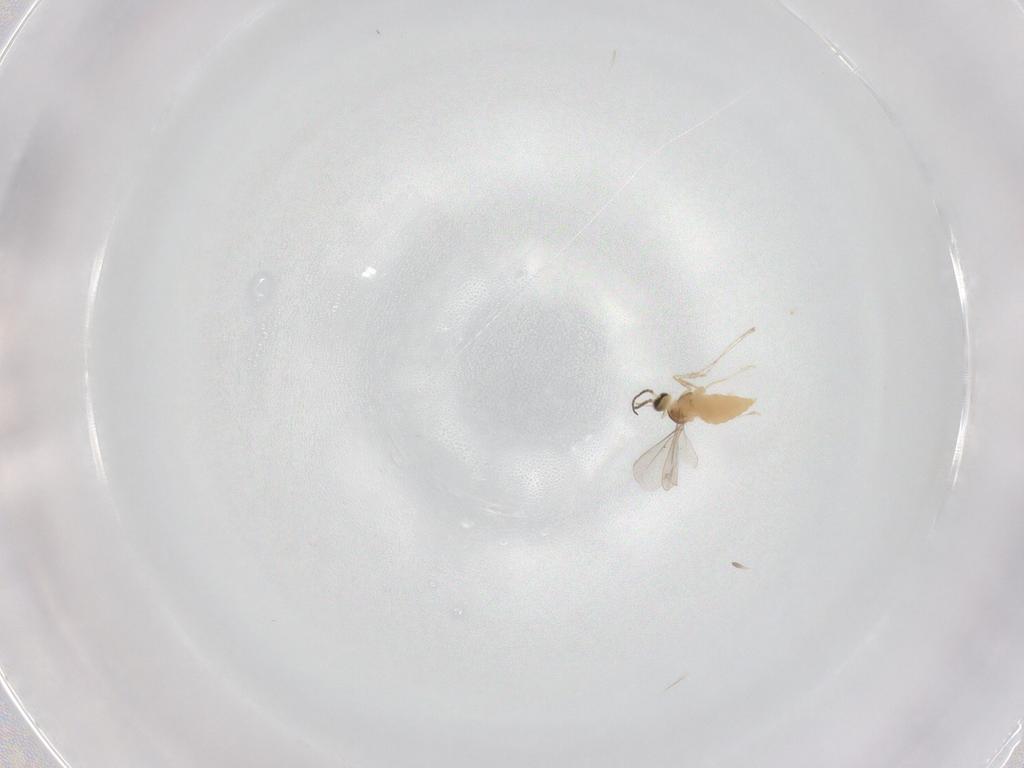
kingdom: Animalia
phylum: Arthropoda
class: Insecta
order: Diptera
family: Cecidomyiidae
